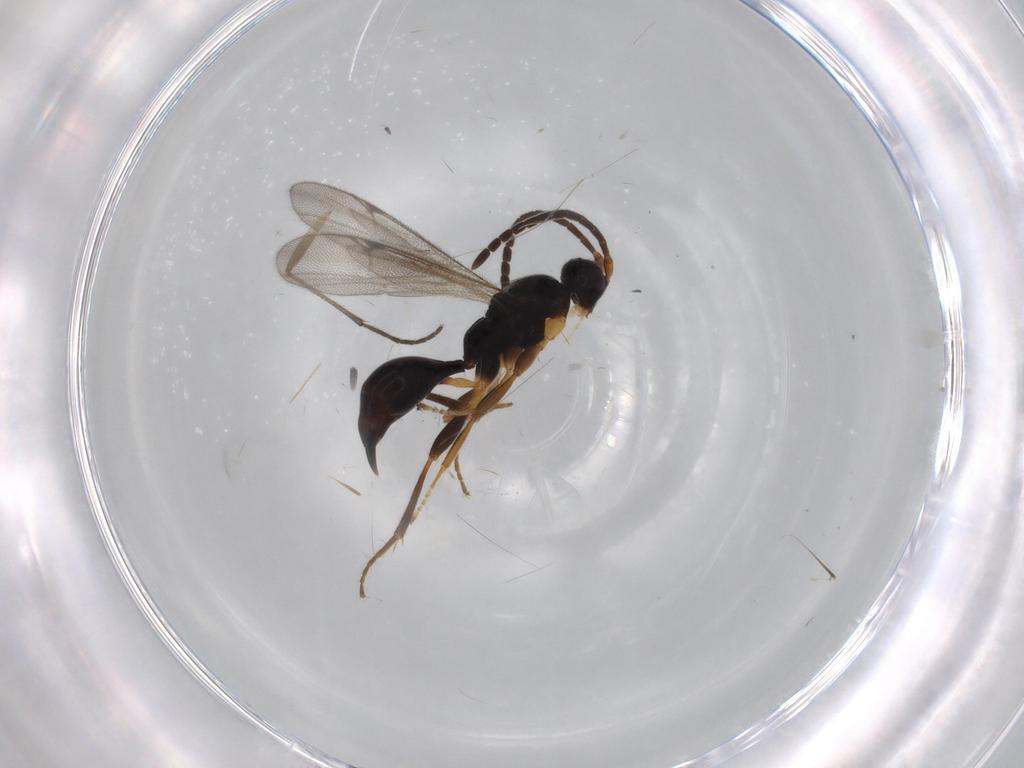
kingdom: Animalia
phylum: Arthropoda
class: Insecta
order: Hymenoptera
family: Proctotrupidae
